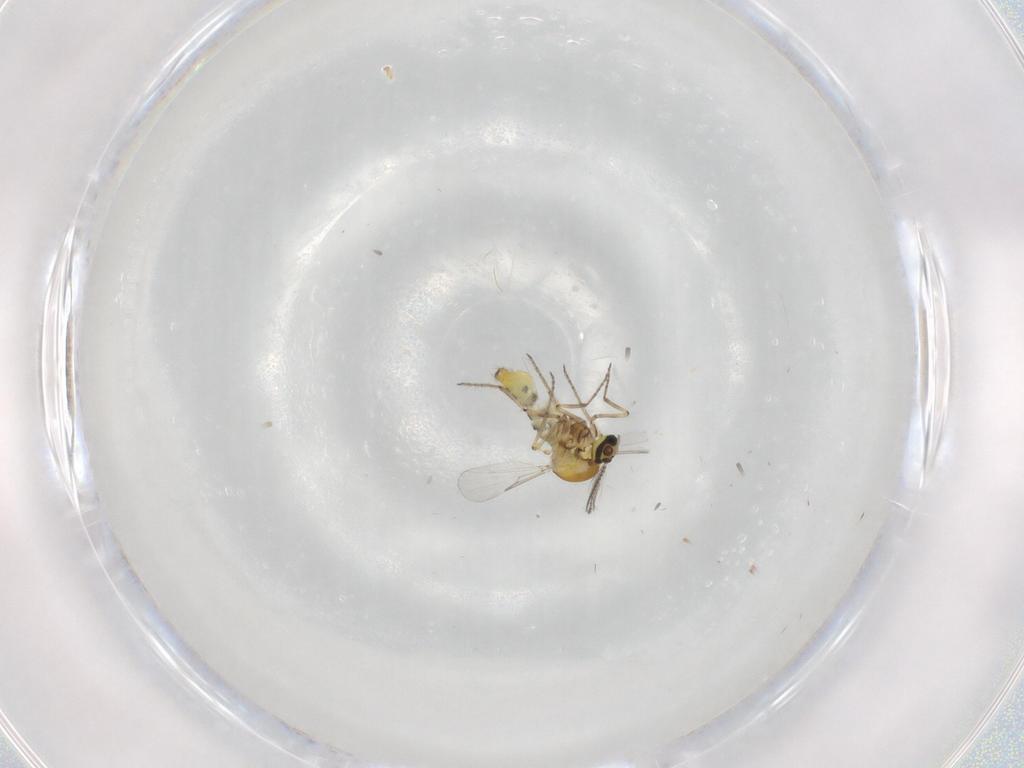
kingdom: Animalia
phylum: Arthropoda
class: Insecta
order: Diptera
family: Ceratopogonidae
